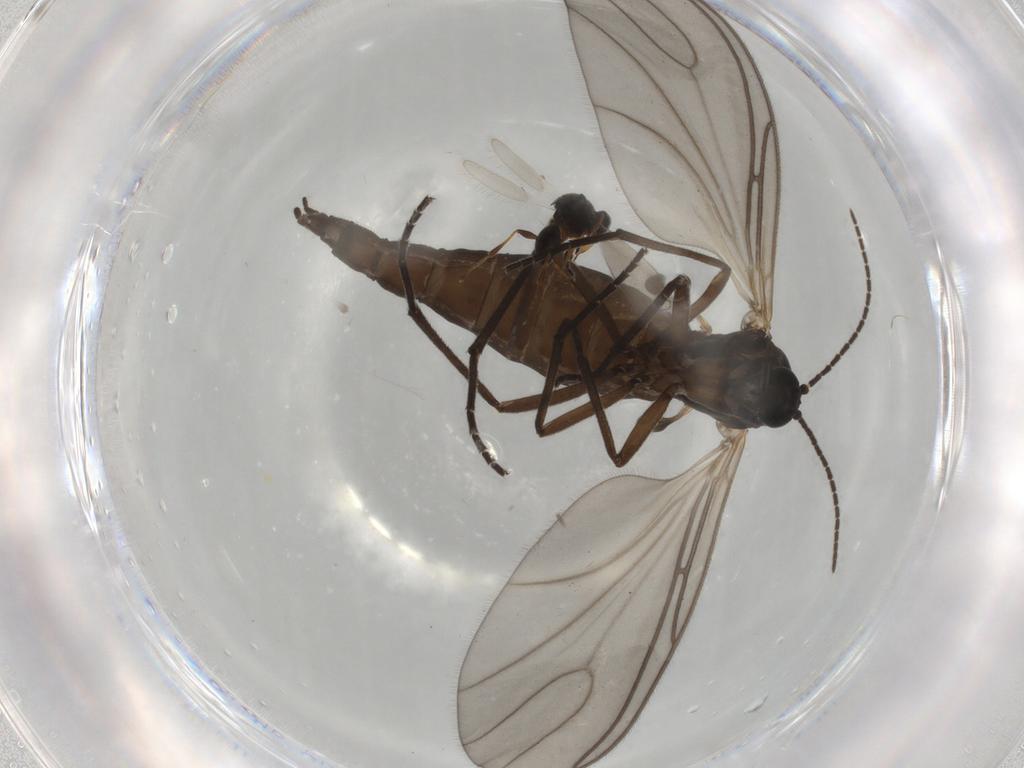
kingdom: Animalia
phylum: Arthropoda
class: Insecta
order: Diptera
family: Sciaridae
